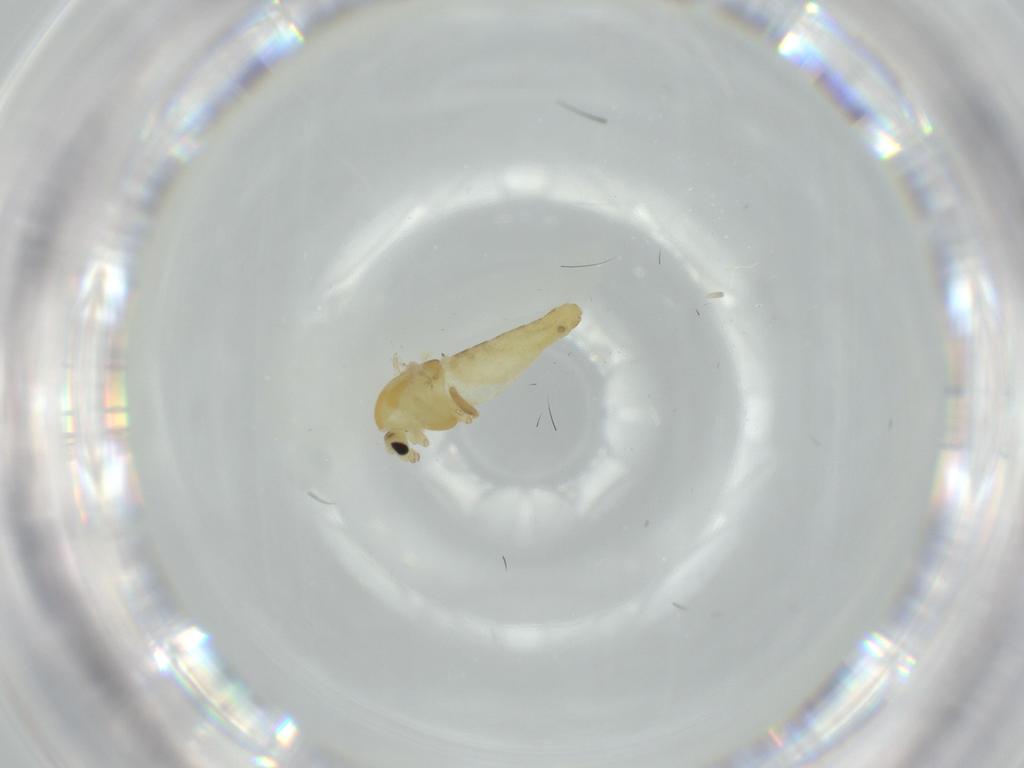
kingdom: Animalia
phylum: Arthropoda
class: Insecta
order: Diptera
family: Chironomidae
